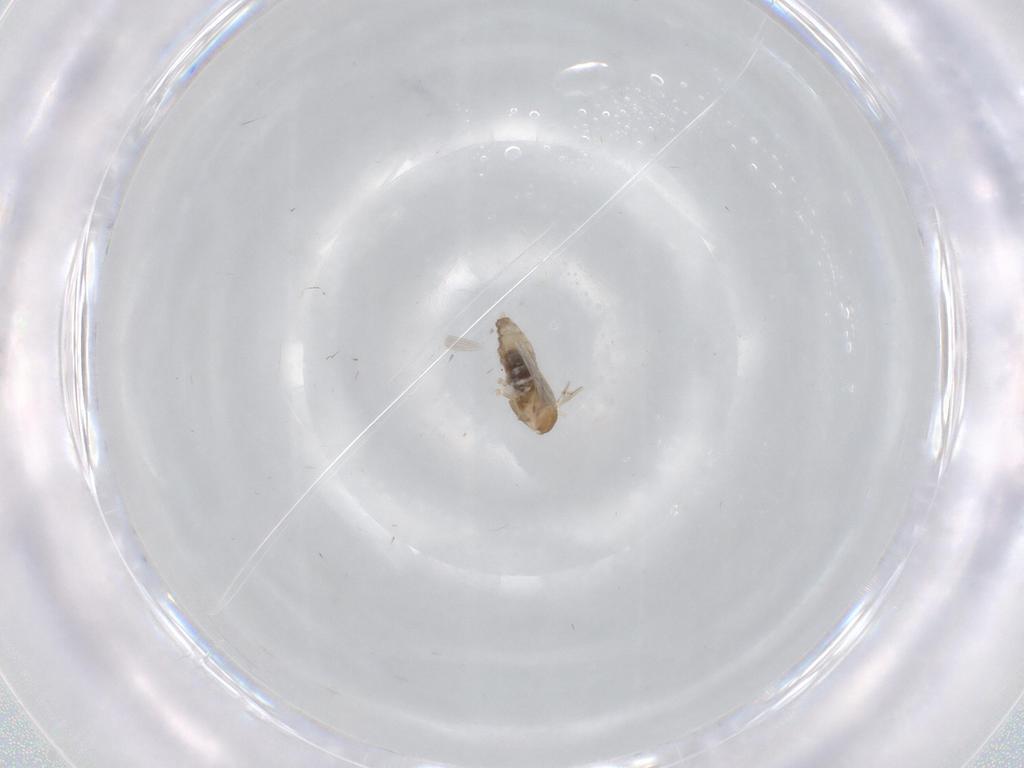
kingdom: Animalia
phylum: Arthropoda
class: Insecta
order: Diptera
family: Cecidomyiidae
